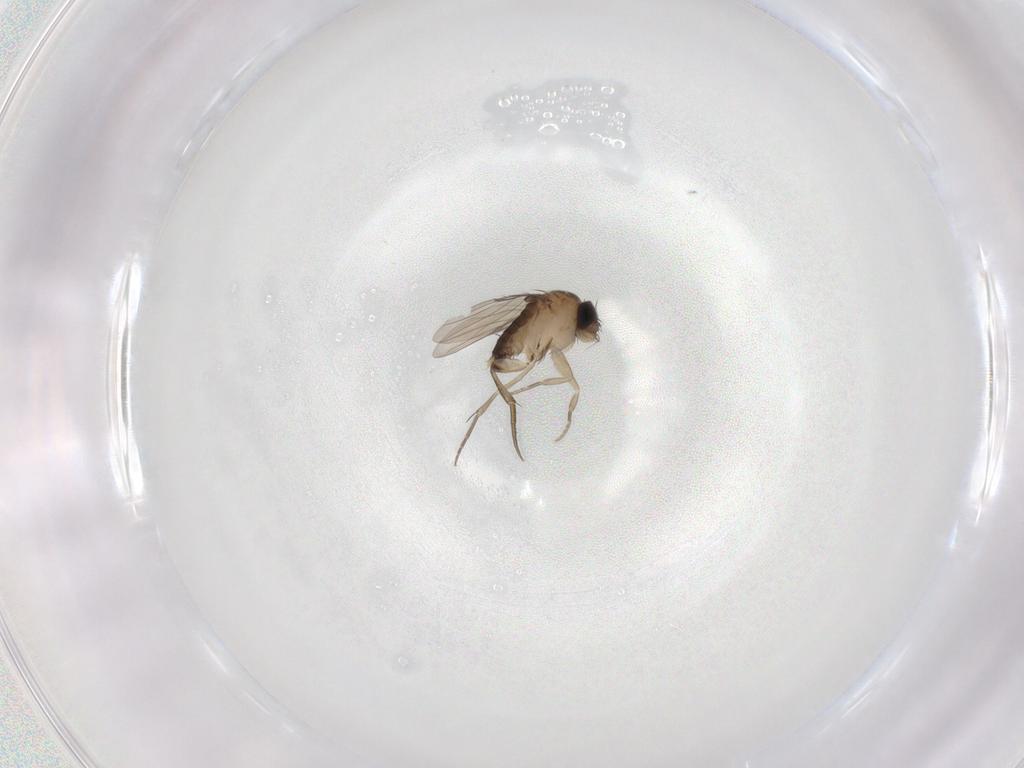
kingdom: Animalia
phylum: Arthropoda
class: Insecta
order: Diptera
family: Phoridae
